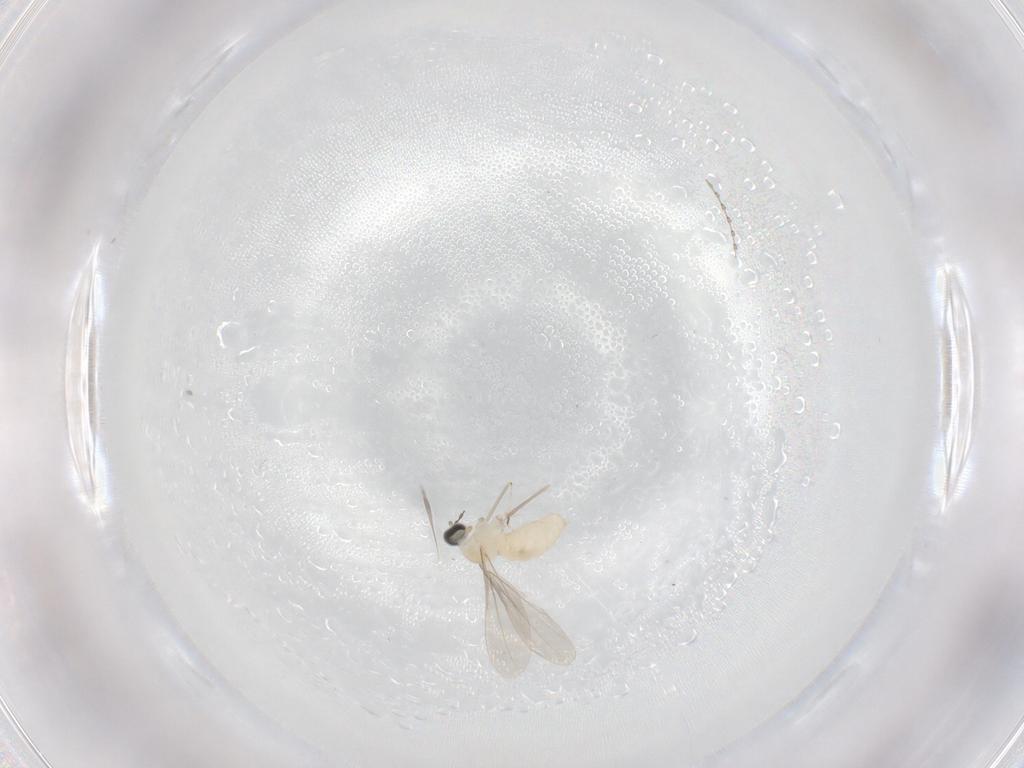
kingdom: Animalia
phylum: Arthropoda
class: Insecta
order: Diptera
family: Cecidomyiidae
